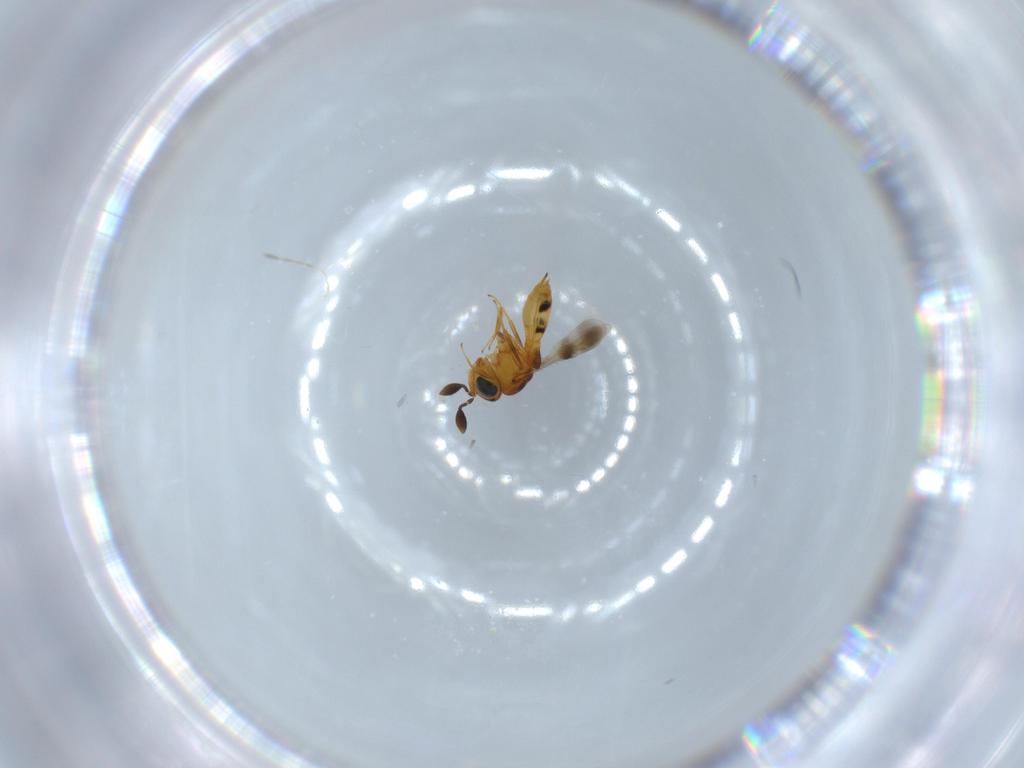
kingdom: Animalia
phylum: Arthropoda
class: Insecta
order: Hymenoptera
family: Scelionidae
